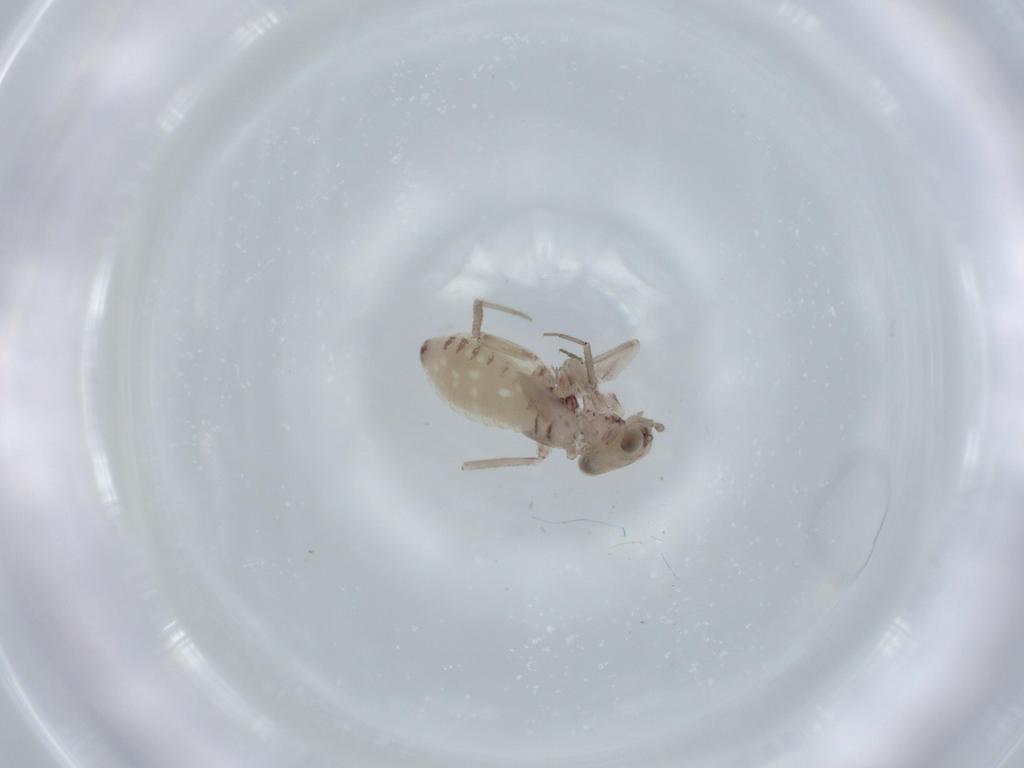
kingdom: Animalia
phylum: Arthropoda
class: Insecta
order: Psocodea
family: Lepidopsocidae
